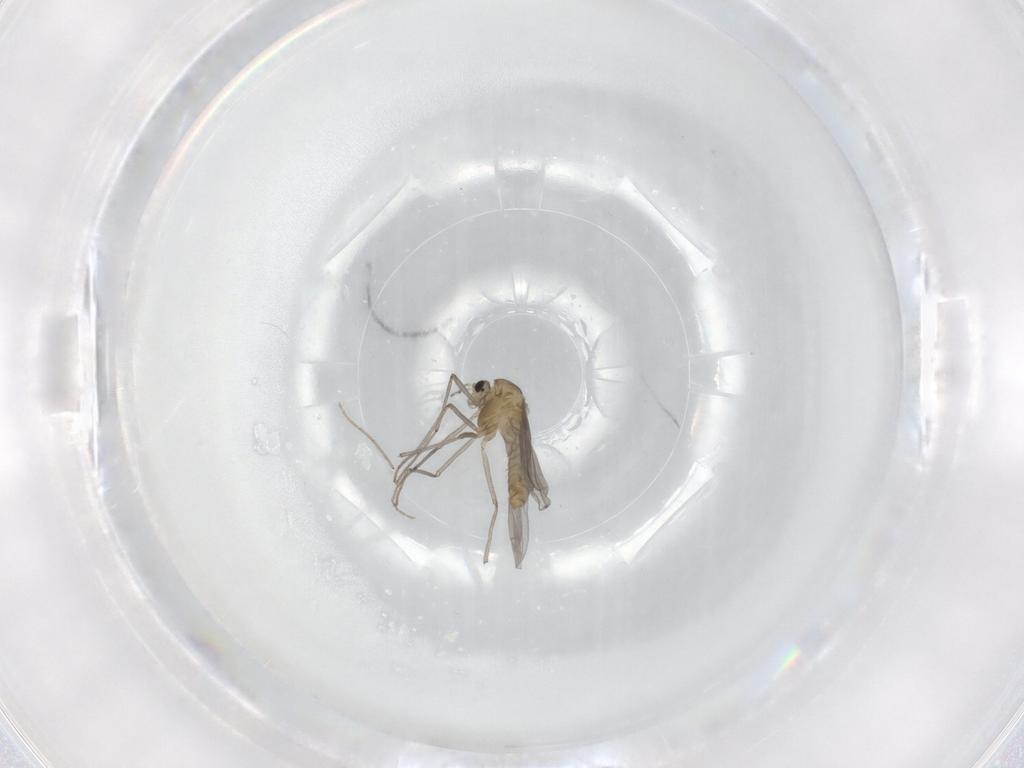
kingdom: Animalia
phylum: Arthropoda
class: Insecta
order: Diptera
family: Chironomidae
